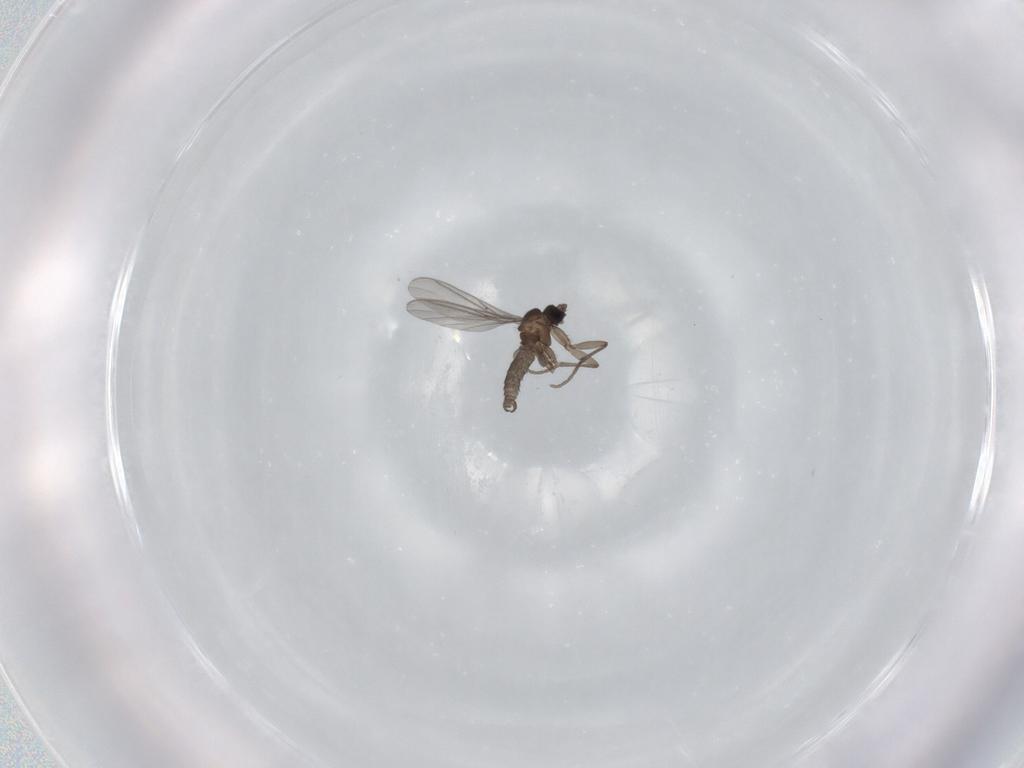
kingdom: Animalia
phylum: Arthropoda
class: Insecta
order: Diptera
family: Sciaridae
